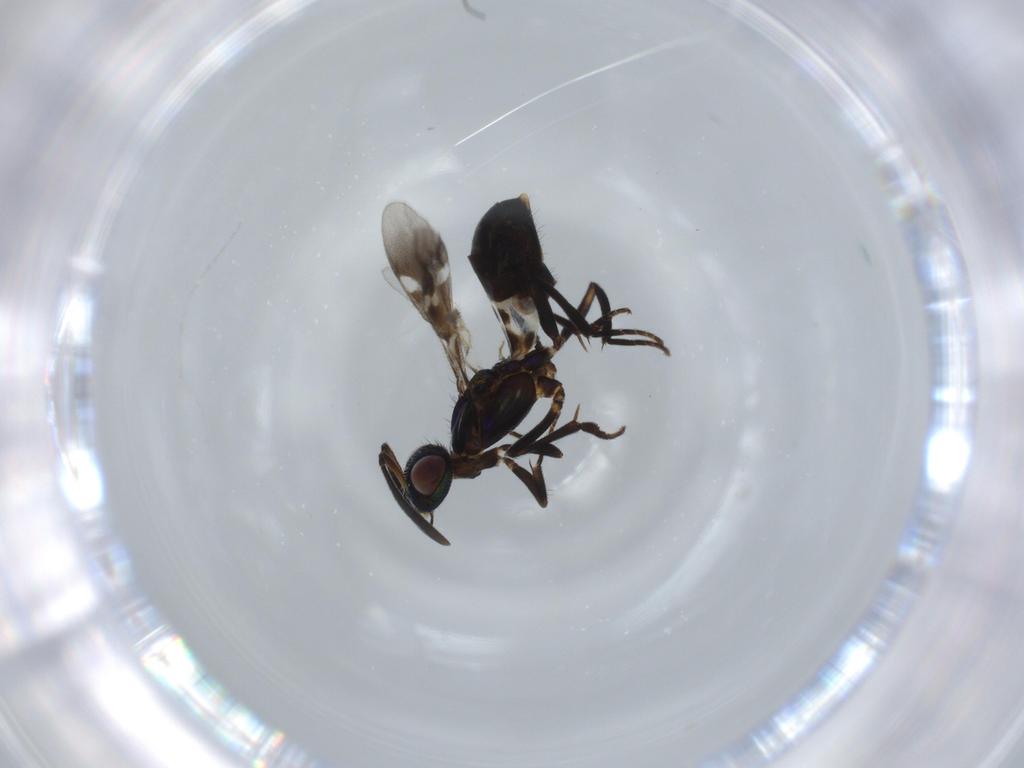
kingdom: Animalia
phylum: Arthropoda
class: Insecta
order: Hymenoptera
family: Eupelmidae
